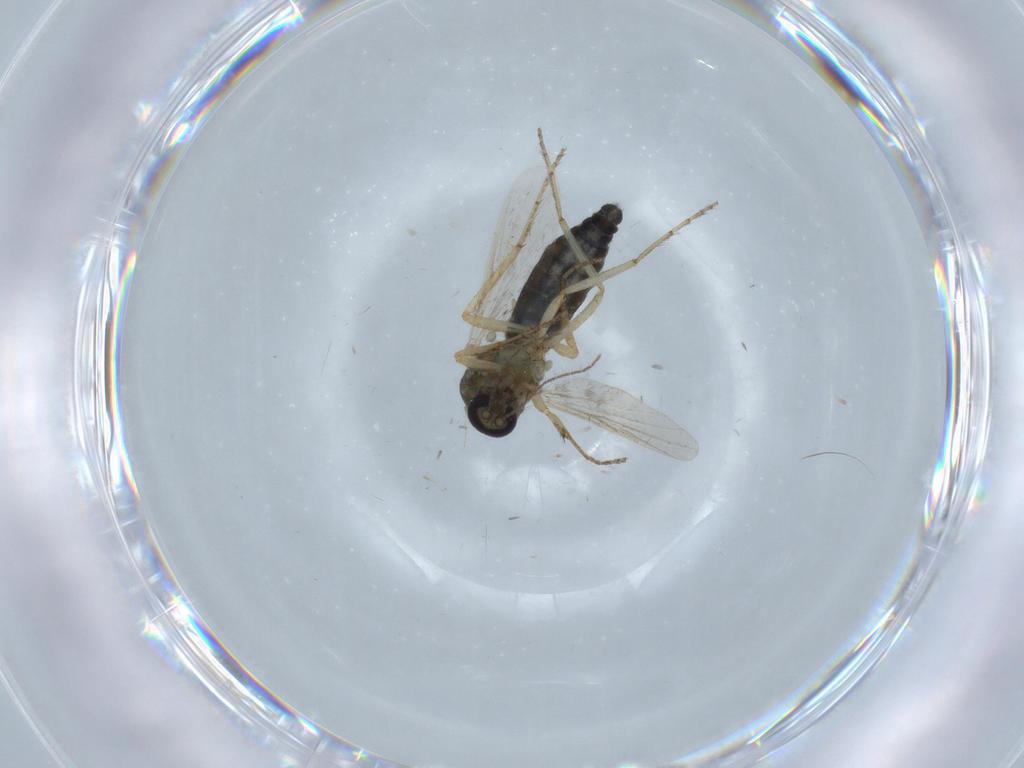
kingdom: Animalia
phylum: Arthropoda
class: Insecta
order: Diptera
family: Ceratopogonidae
